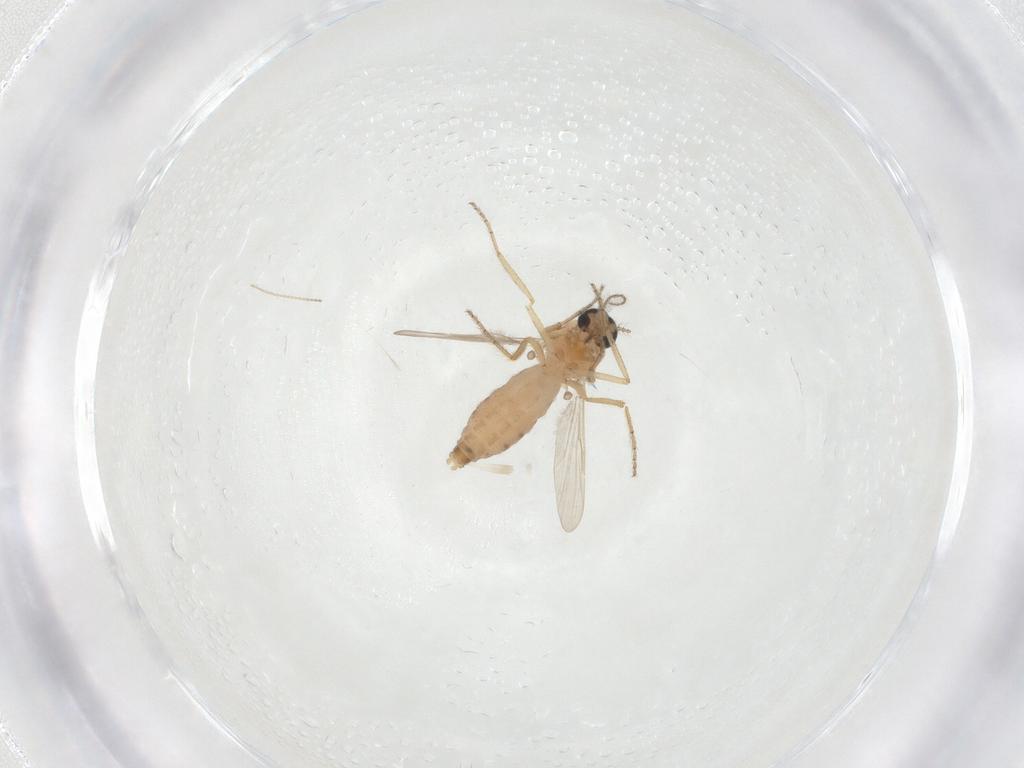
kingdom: Animalia
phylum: Arthropoda
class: Insecta
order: Diptera
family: Ceratopogonidae
